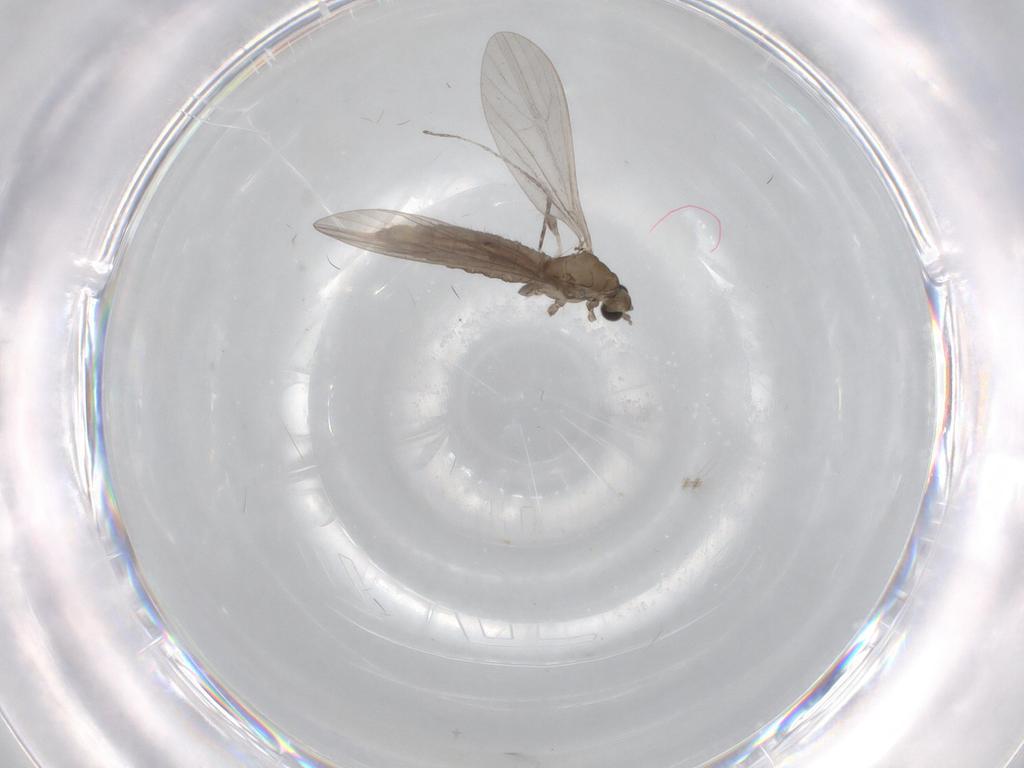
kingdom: Animalia
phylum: Arthropoda
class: Insecta
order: Diptera
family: Limoniidae
